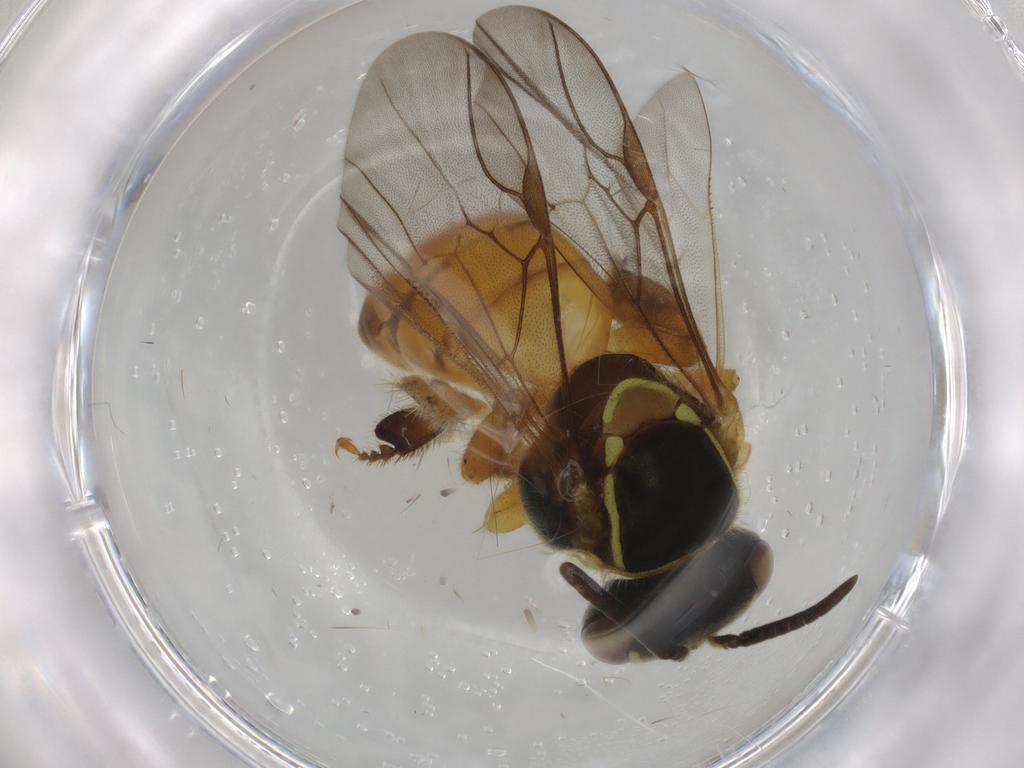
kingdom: Animalia
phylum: Arthropoda
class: Insecta
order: Hymenoptera
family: Apidae
